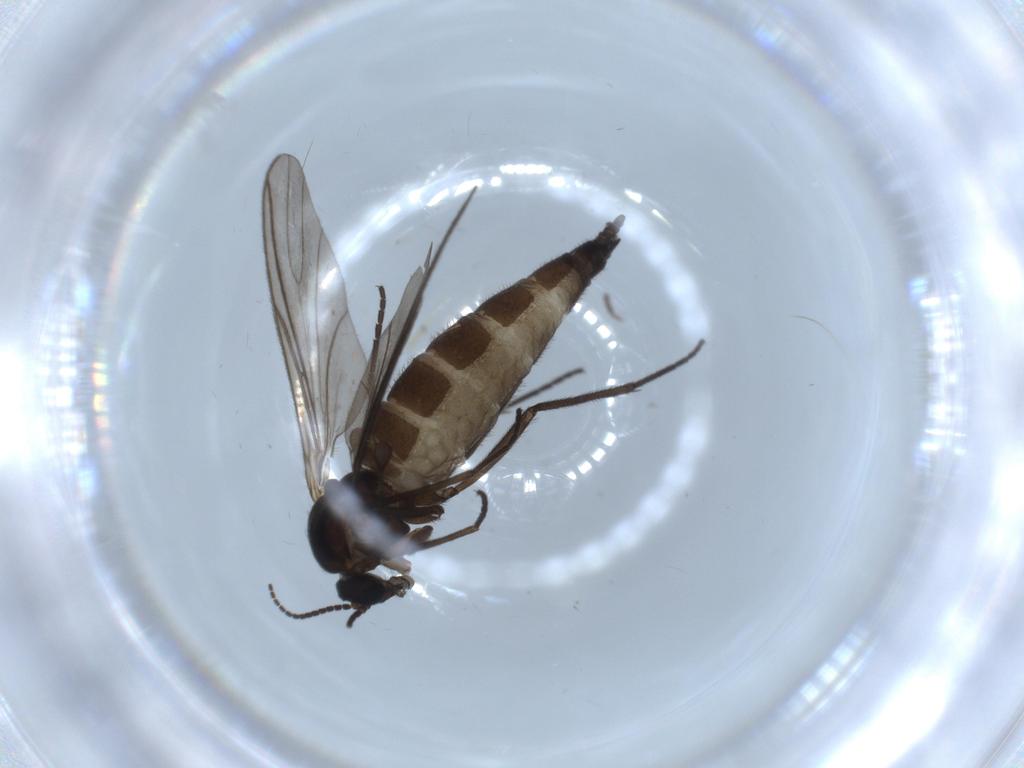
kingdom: Animalia
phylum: Arthropoda
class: Insecta
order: Diptera
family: Sciaridae
